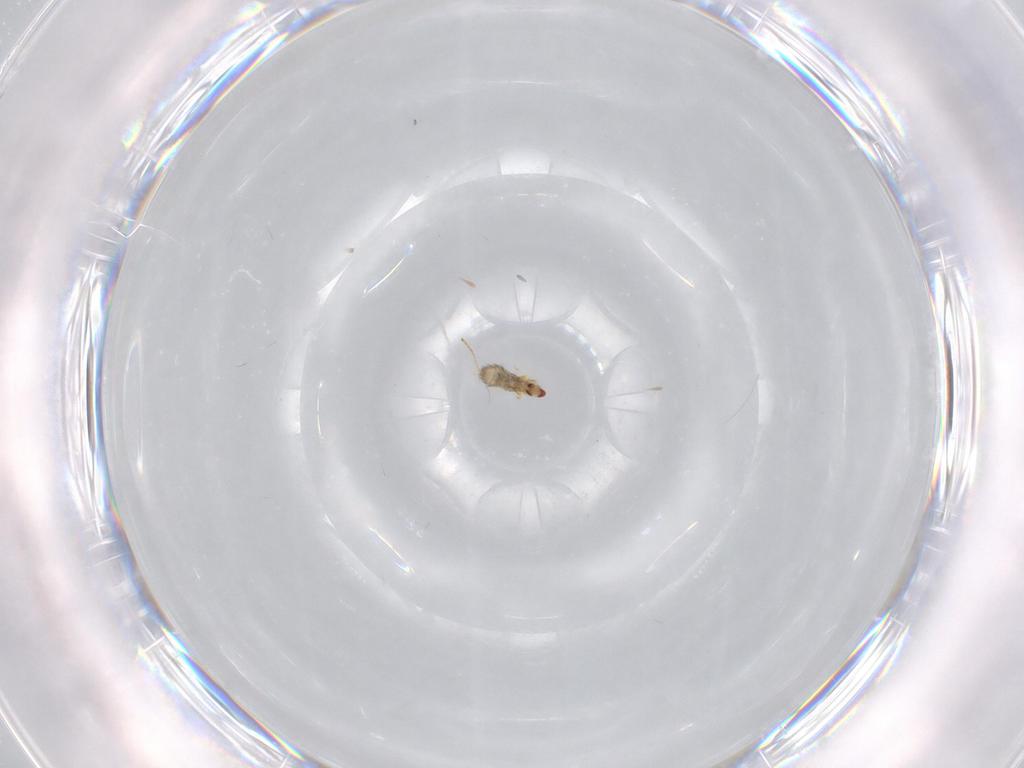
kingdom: Animalia
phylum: Arthropoda
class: Insecta
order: Diptera
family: Cecidomyiidae
